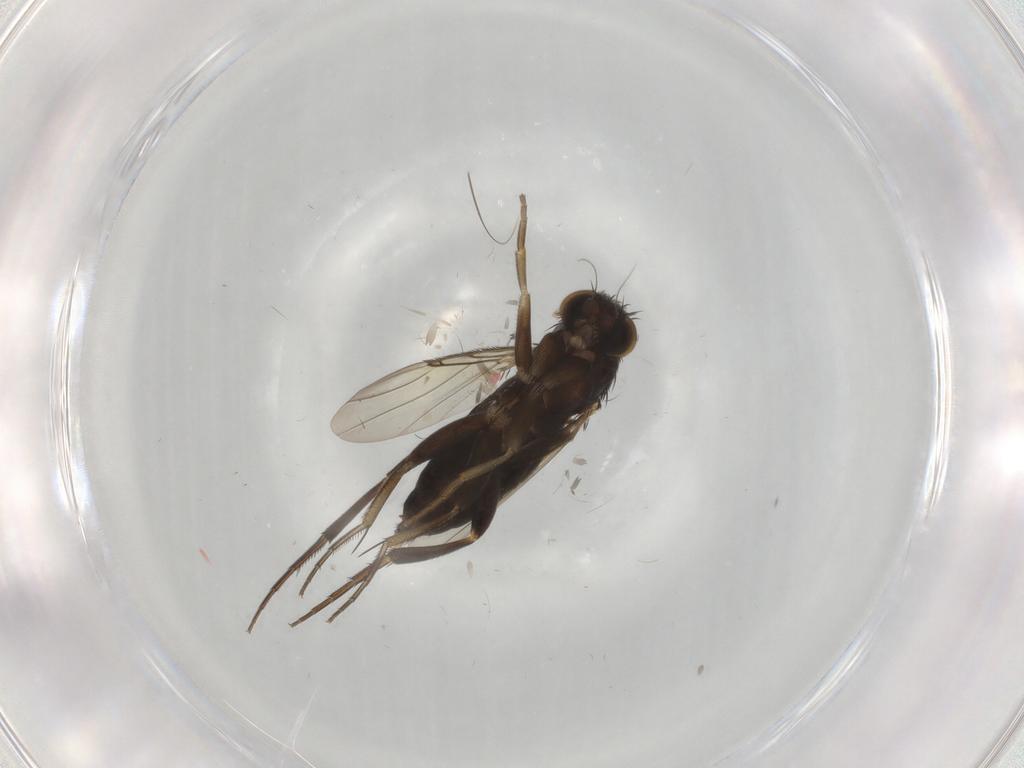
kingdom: Animalia
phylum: Arthropoda
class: Insecta
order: Diptera
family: Phoridae
